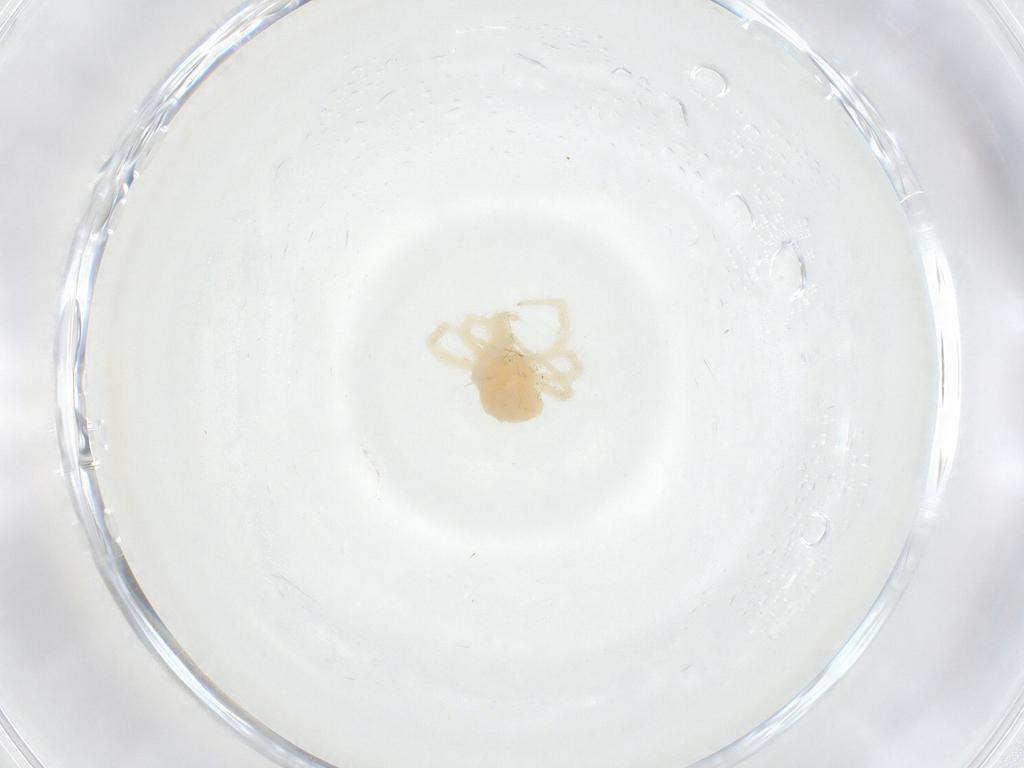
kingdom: Animalia
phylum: Arthropoda
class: Arachnida
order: Trombidiformes
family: Anystidae
